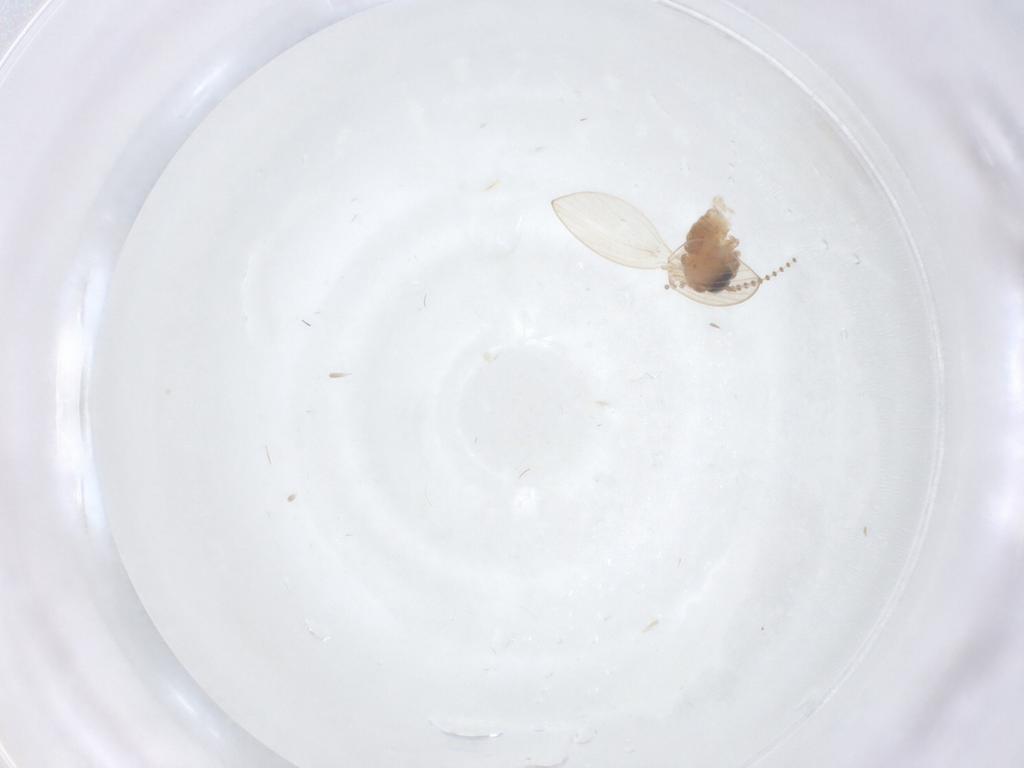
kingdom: Animalia
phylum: Arthropoda
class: Insecta
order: Diptera
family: Psychodidae
